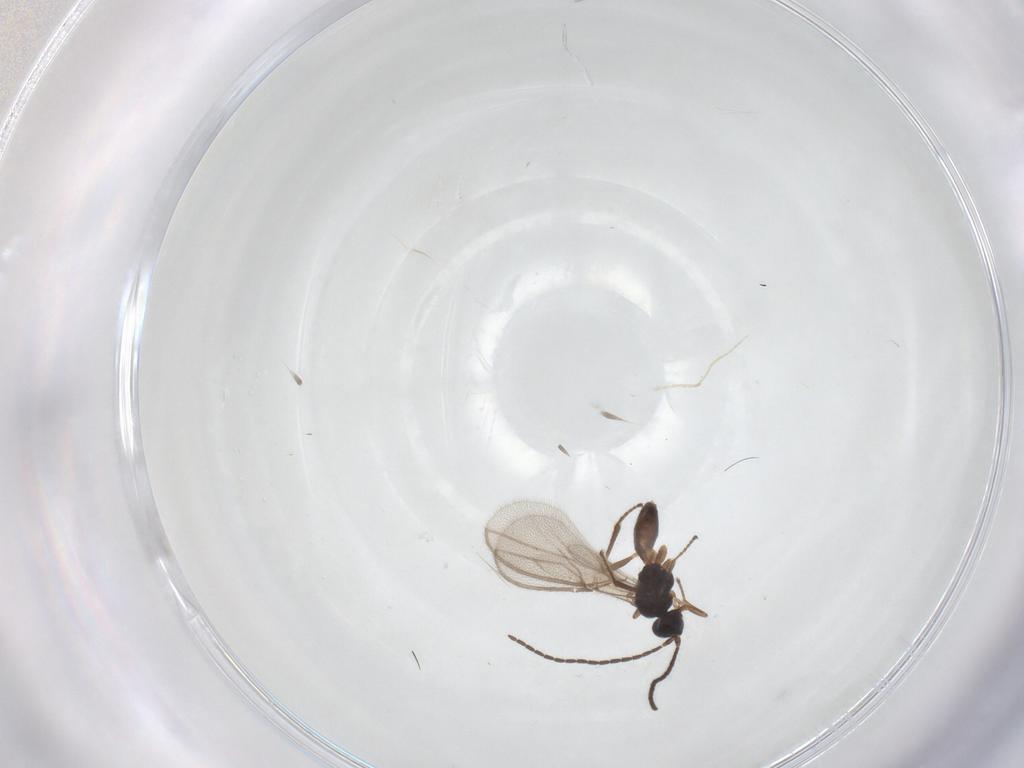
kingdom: Animalia
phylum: Arthropoda
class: Insecta
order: Hymenoptera
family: Braconidae
